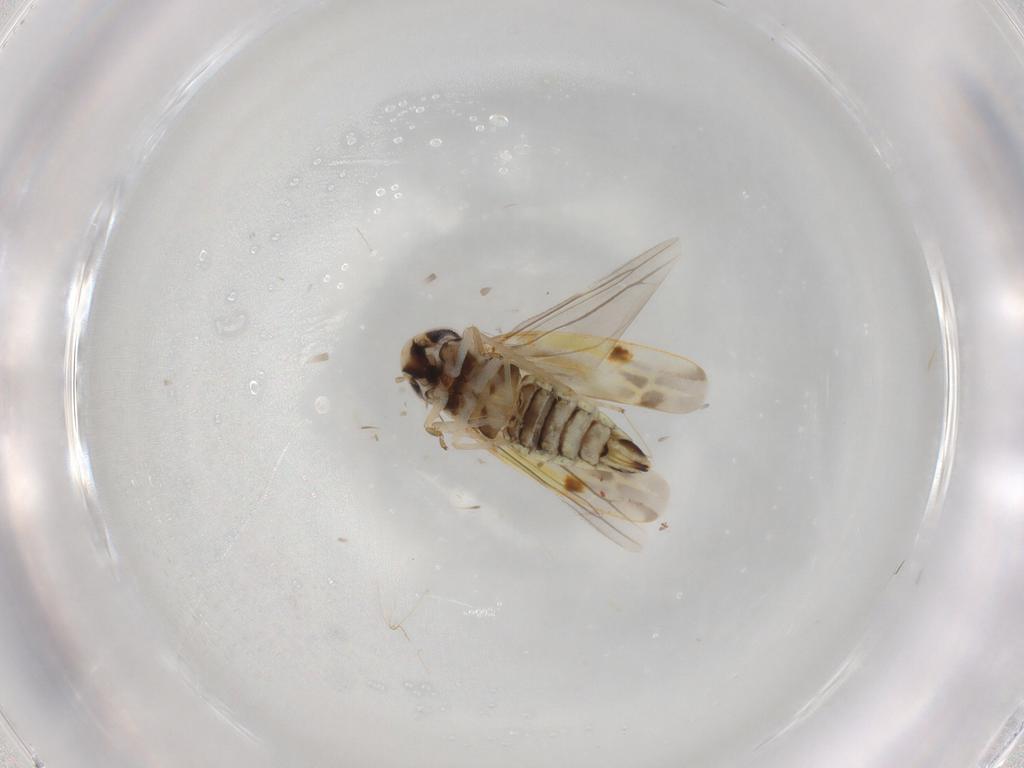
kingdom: Animalia
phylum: Arthropoda
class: Insecta
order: Hemiptera
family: Cicadellidae
